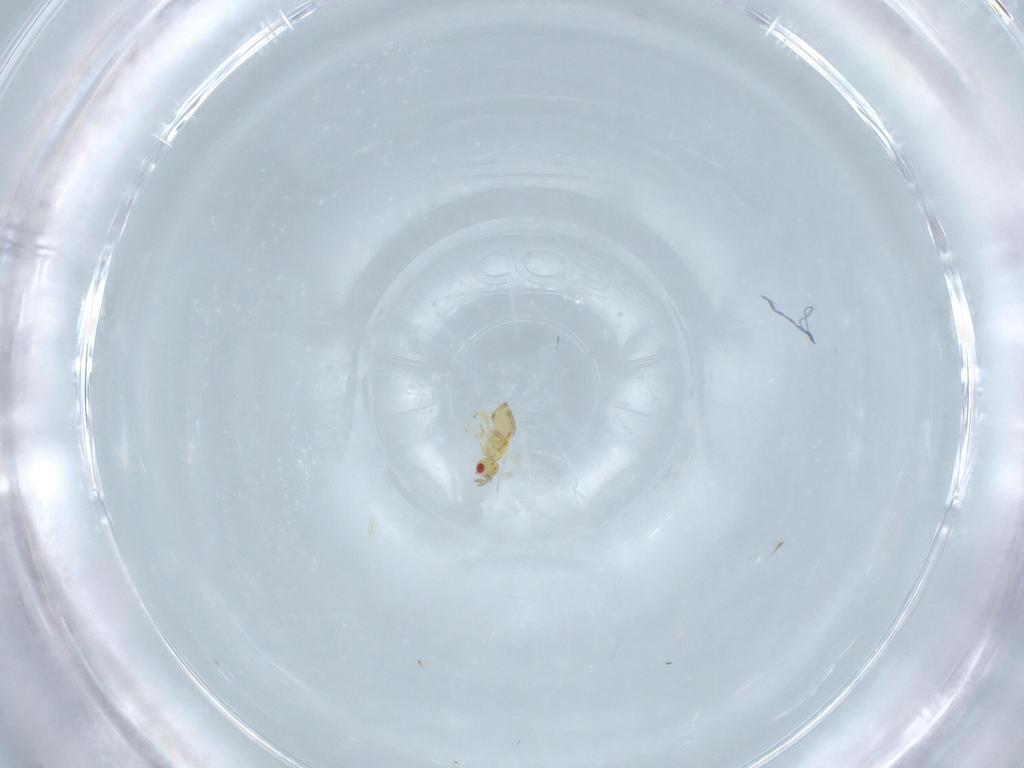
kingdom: Animalia
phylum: Arthropoda
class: Insecta
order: Hymenoptera
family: Trichogrammatidae
